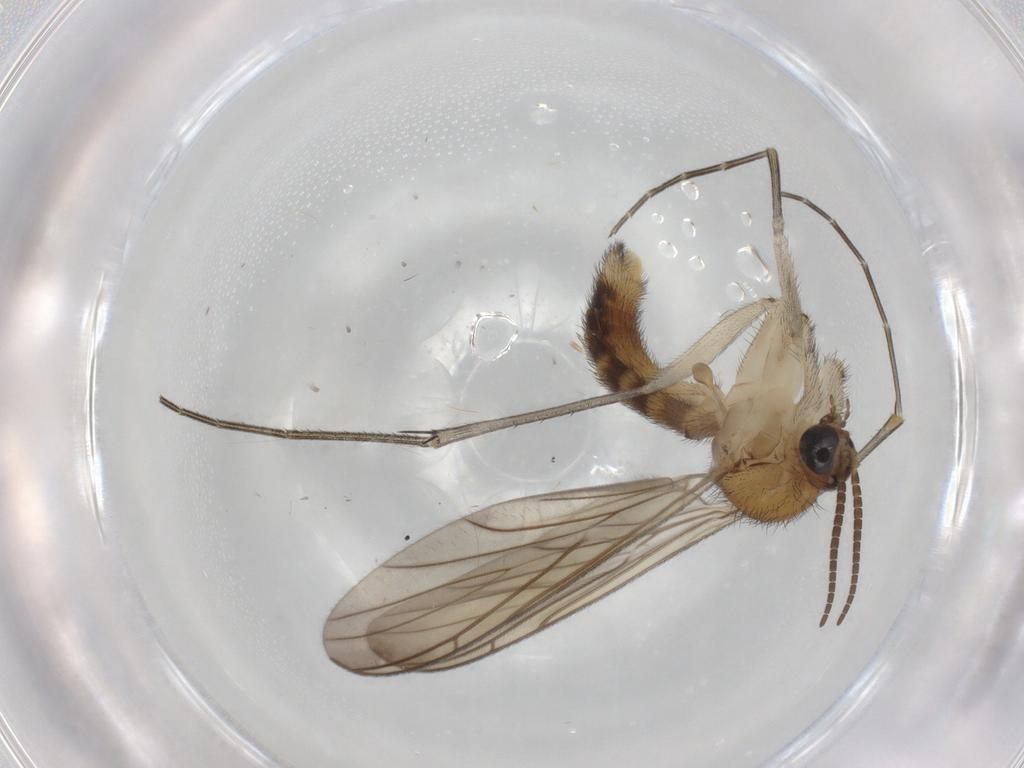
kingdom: Animalia
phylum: Arthropoda
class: Insecta
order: Diptera
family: Keroplatidae
